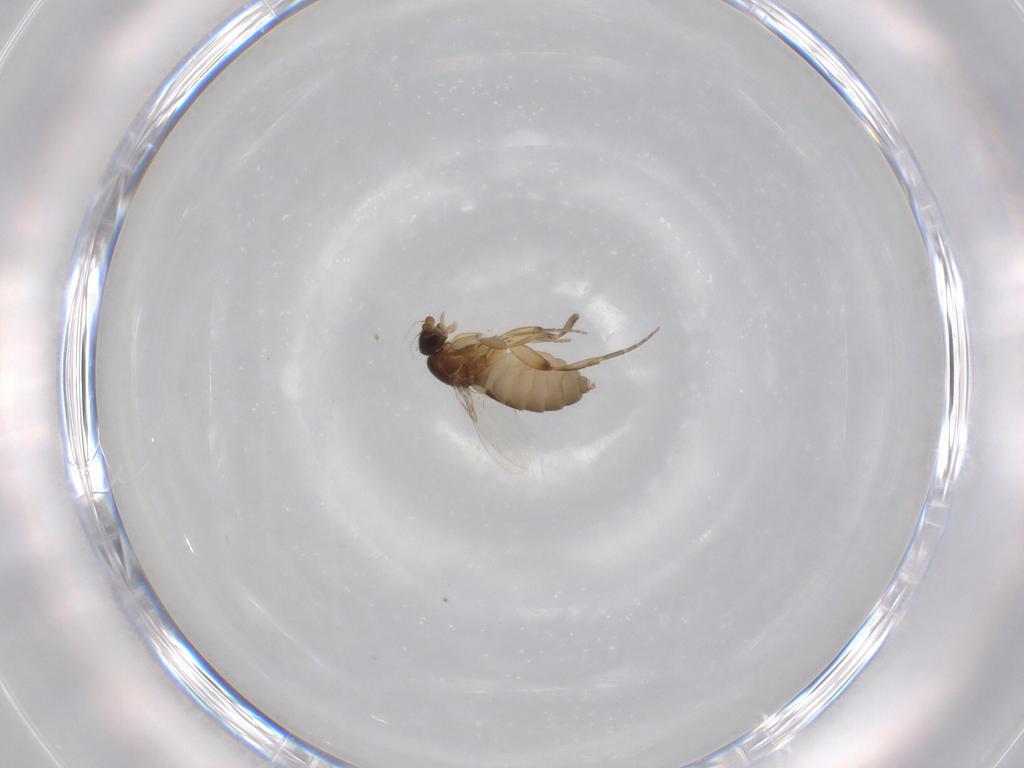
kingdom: Animalia
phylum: Arthropoda
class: Insecta
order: Diptera
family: Phoridae
